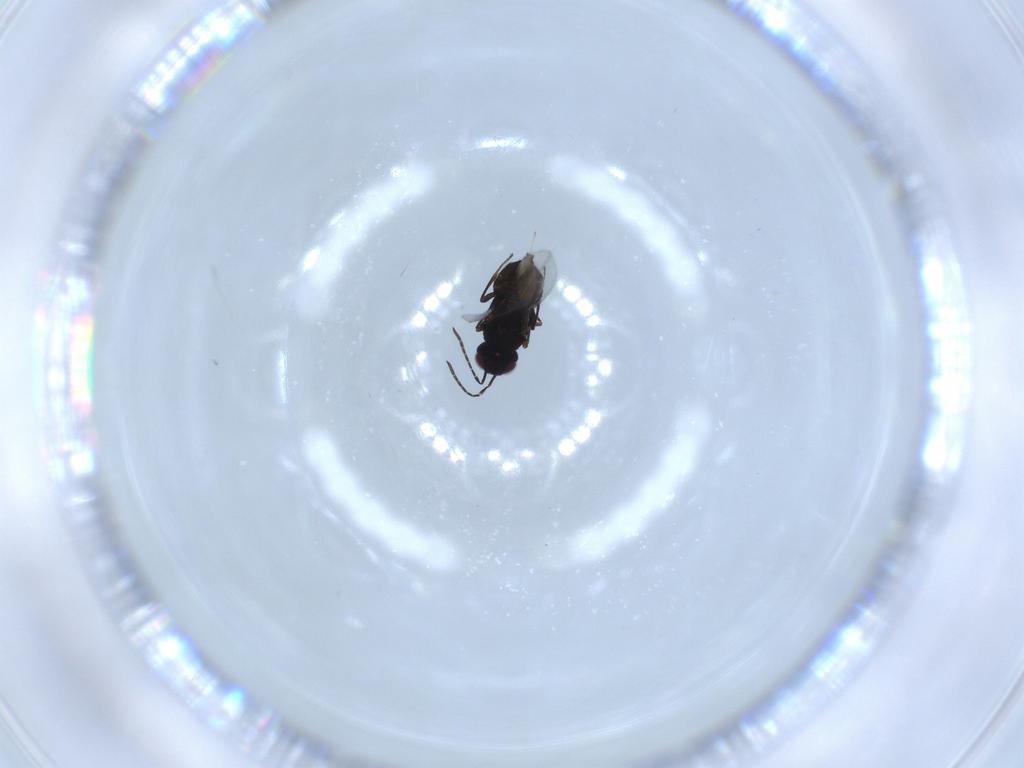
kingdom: Animalia
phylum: Arthropoda
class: Insecta
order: Hymenoptera
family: Encyrtidae
